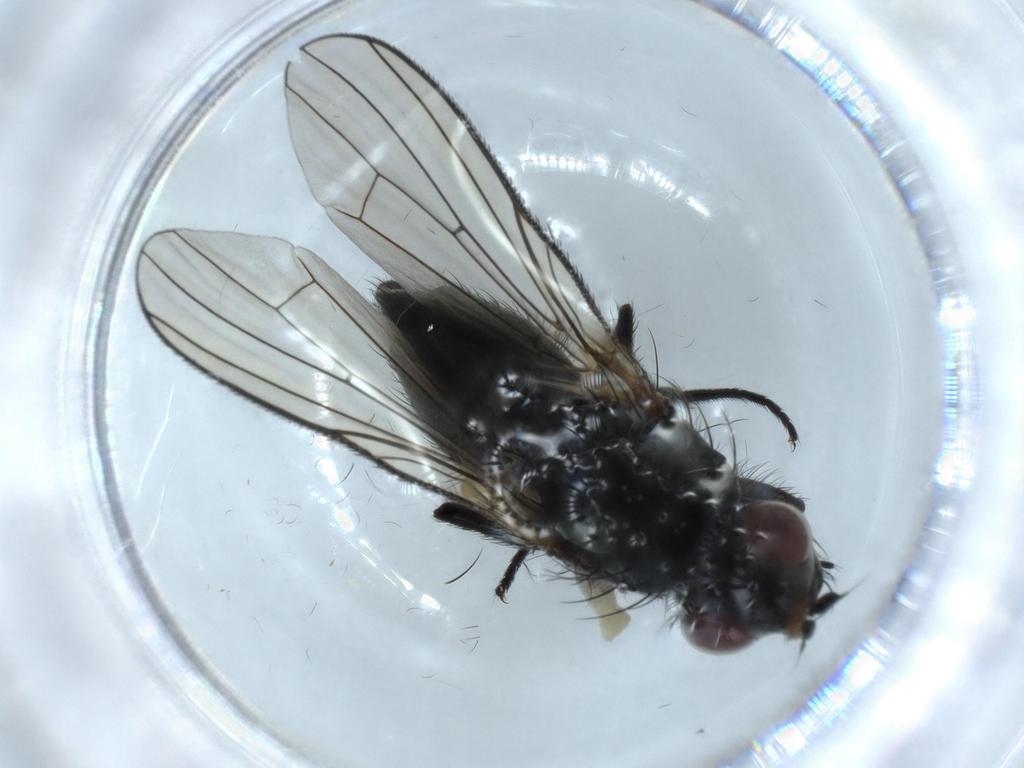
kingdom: Animalia
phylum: Arthropoda
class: Insecta
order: Diptera
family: Anthomyiidae
